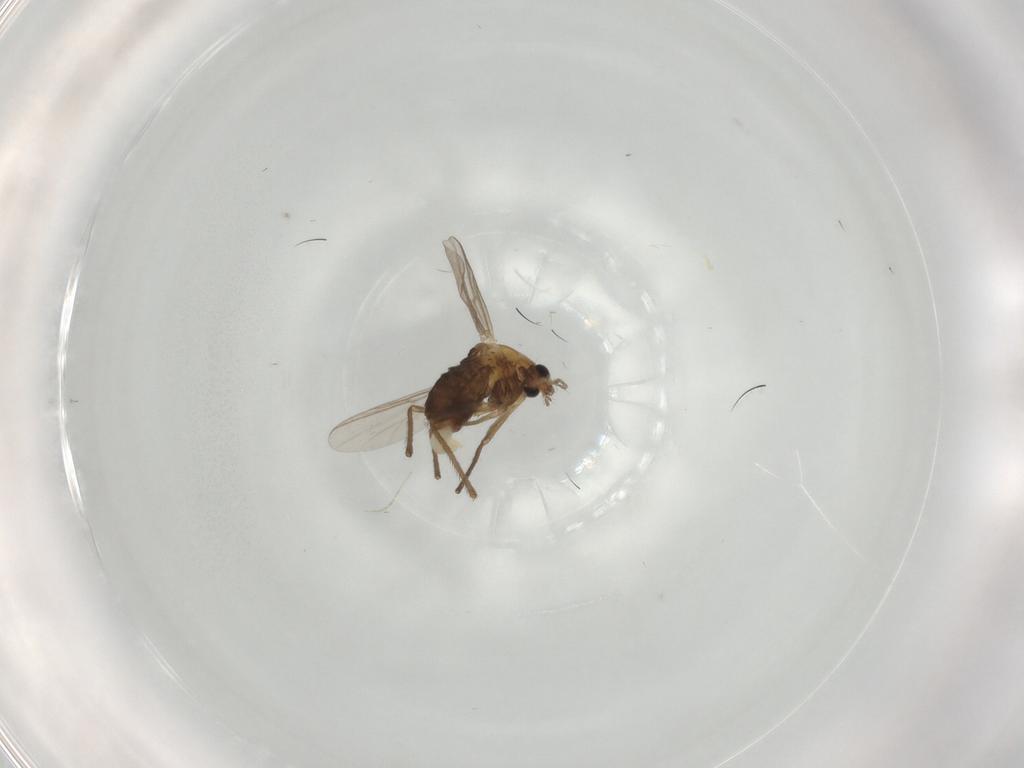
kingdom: Animalia
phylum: Arthropoda
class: Insecta
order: Diptera
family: Chironomidae
